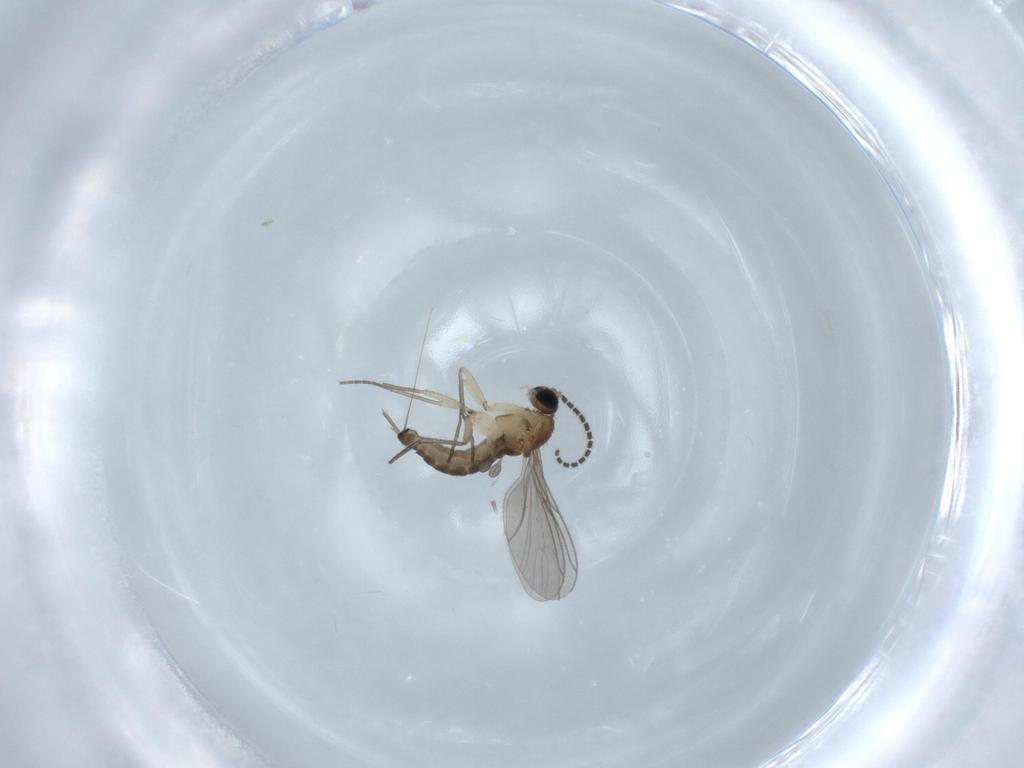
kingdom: Animalia
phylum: Arthropoda
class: Insecta
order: Diptera
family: Sciaridae
